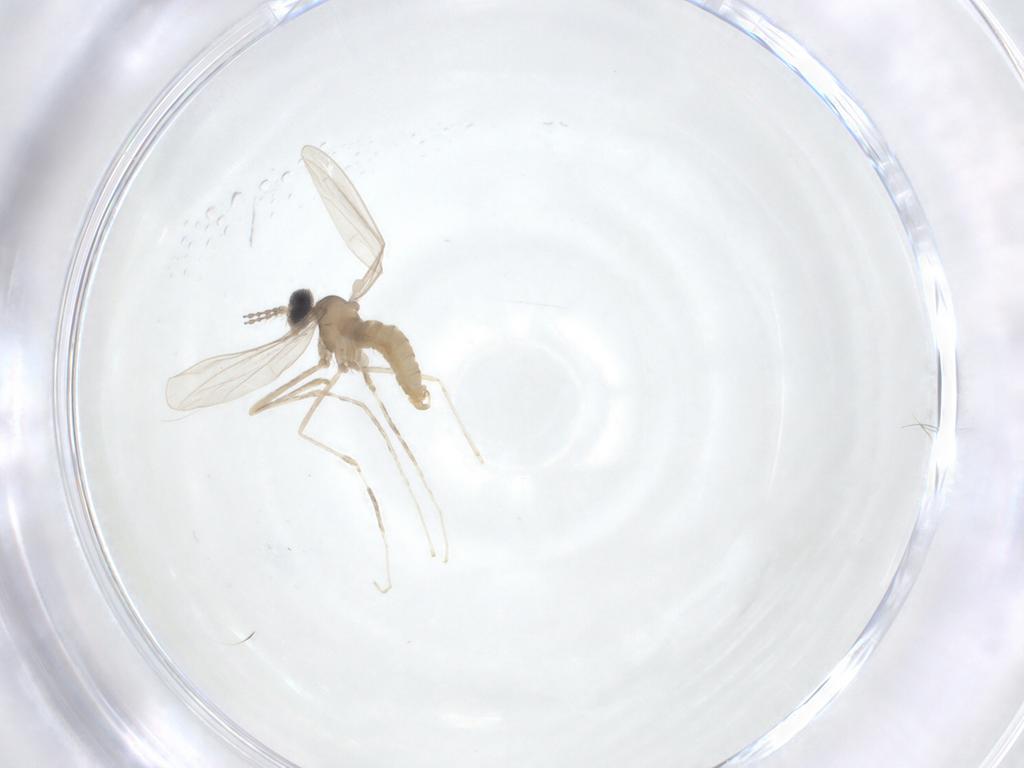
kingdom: Animalia
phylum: Arthropoda
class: Insecta
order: Diptera
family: Cecidomyiidae
